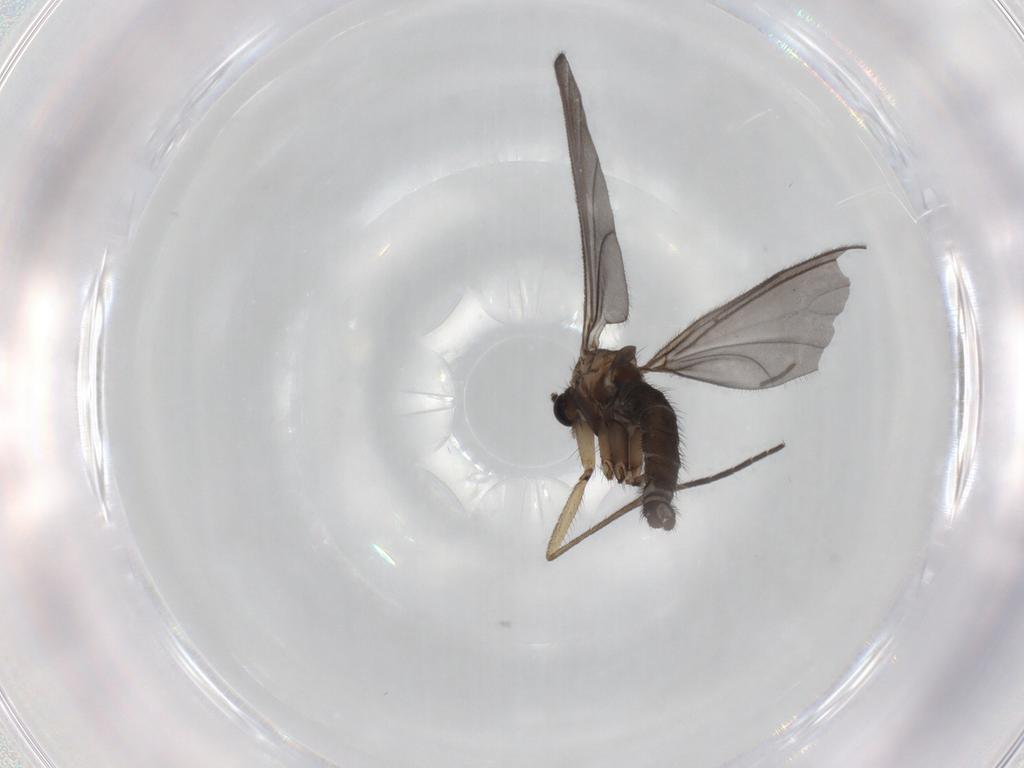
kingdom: Animalia
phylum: Arthropoda
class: Insecta
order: Diptera
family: Sciaridae
